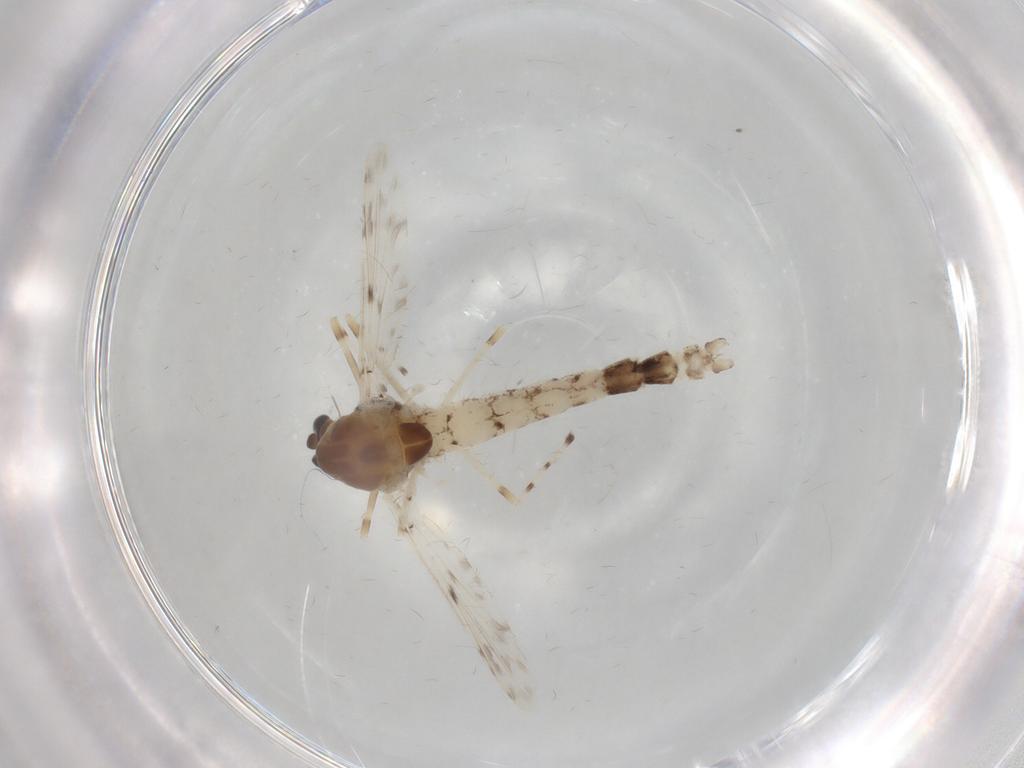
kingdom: Animalia
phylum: Arthropoda
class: Insecta
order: Diptera
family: Chironomidae
